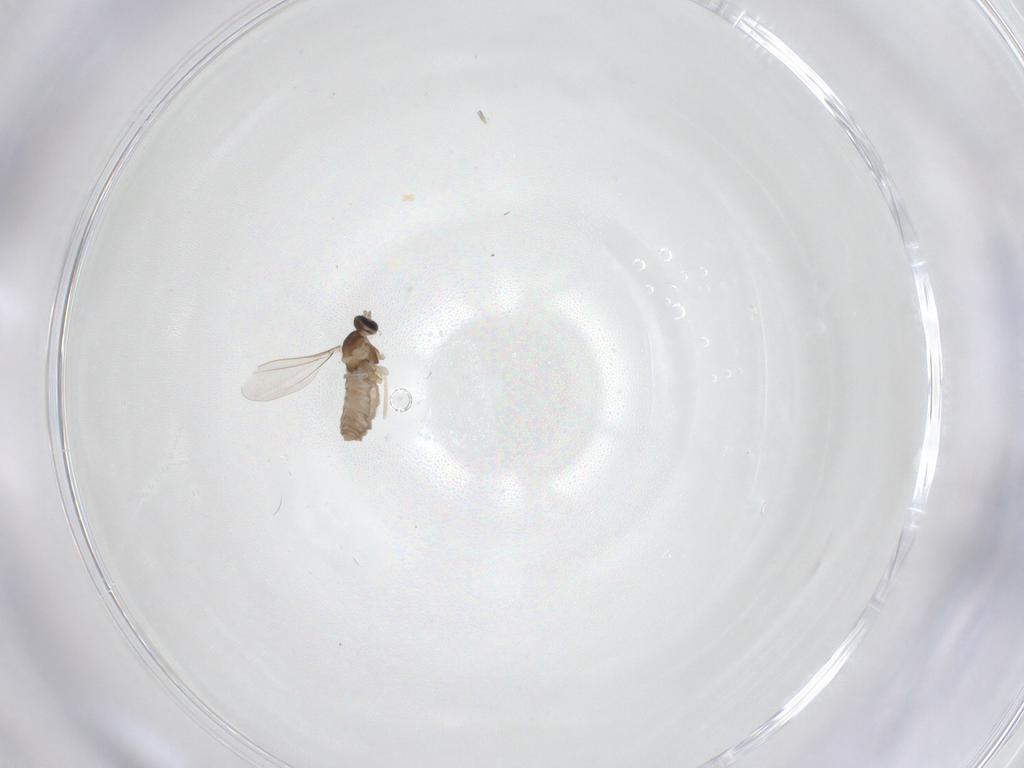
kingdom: Animalia
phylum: Arthropoda
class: Insecta
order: Diptera
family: Cecidomyiidae
